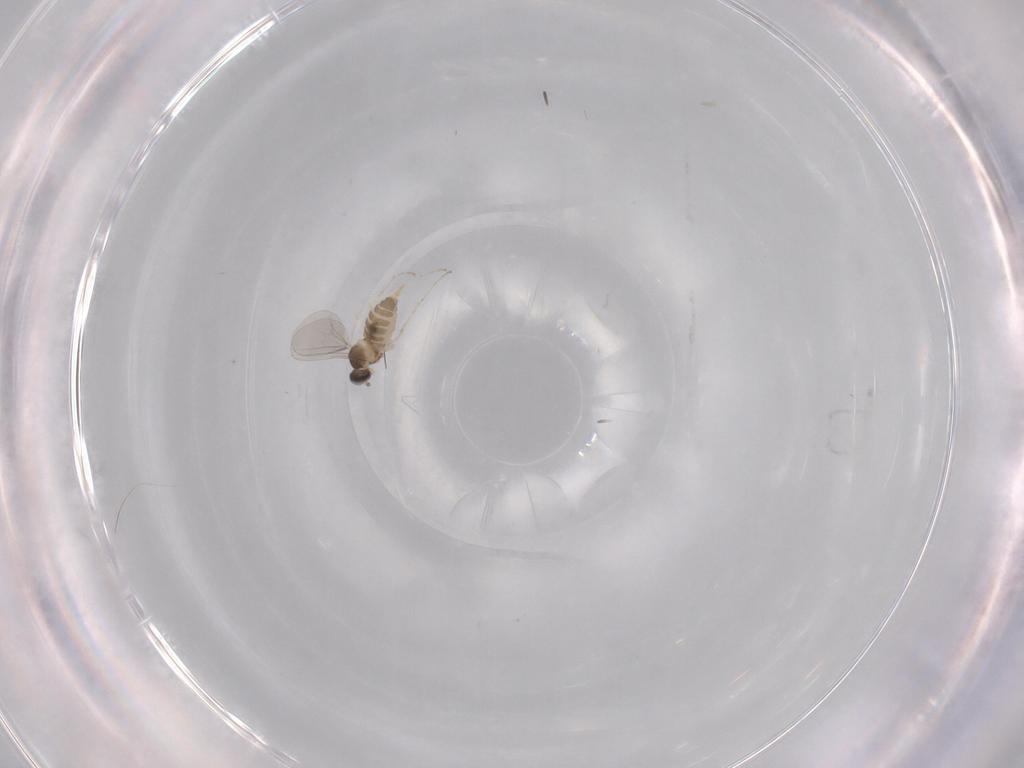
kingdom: Animalia
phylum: Arthropoda
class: Insecta
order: Diptera
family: Cecidomyiidae
